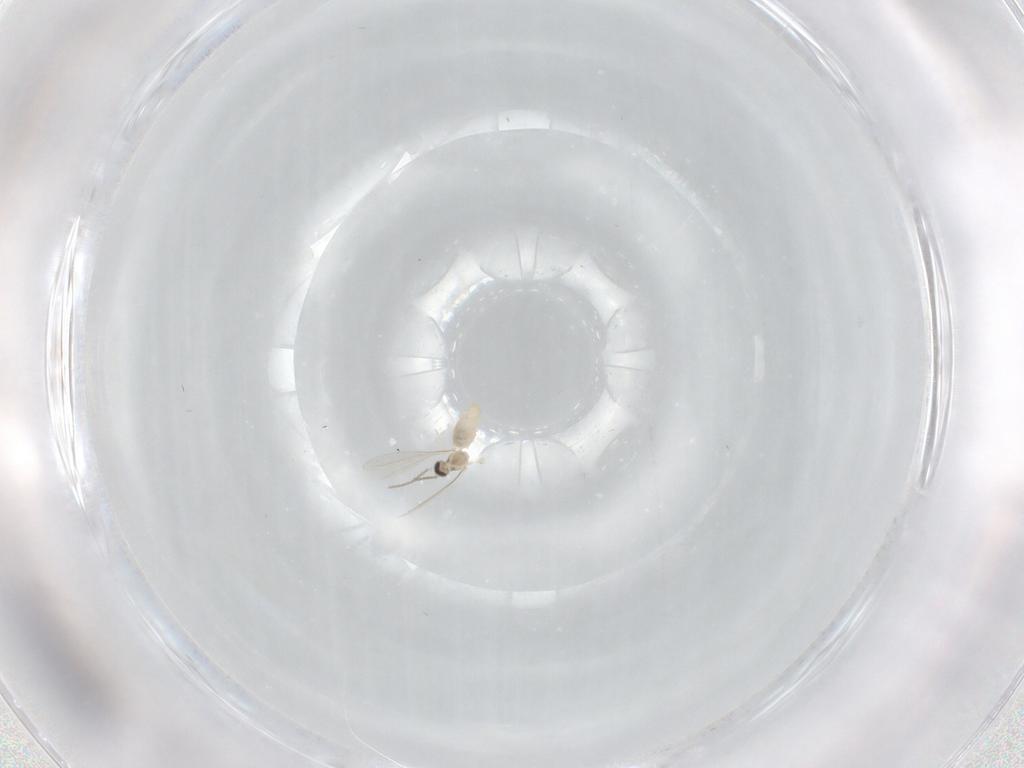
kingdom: Animalia
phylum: Arthropoda
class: Insecta
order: Diptera
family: Cecidomyiidae
